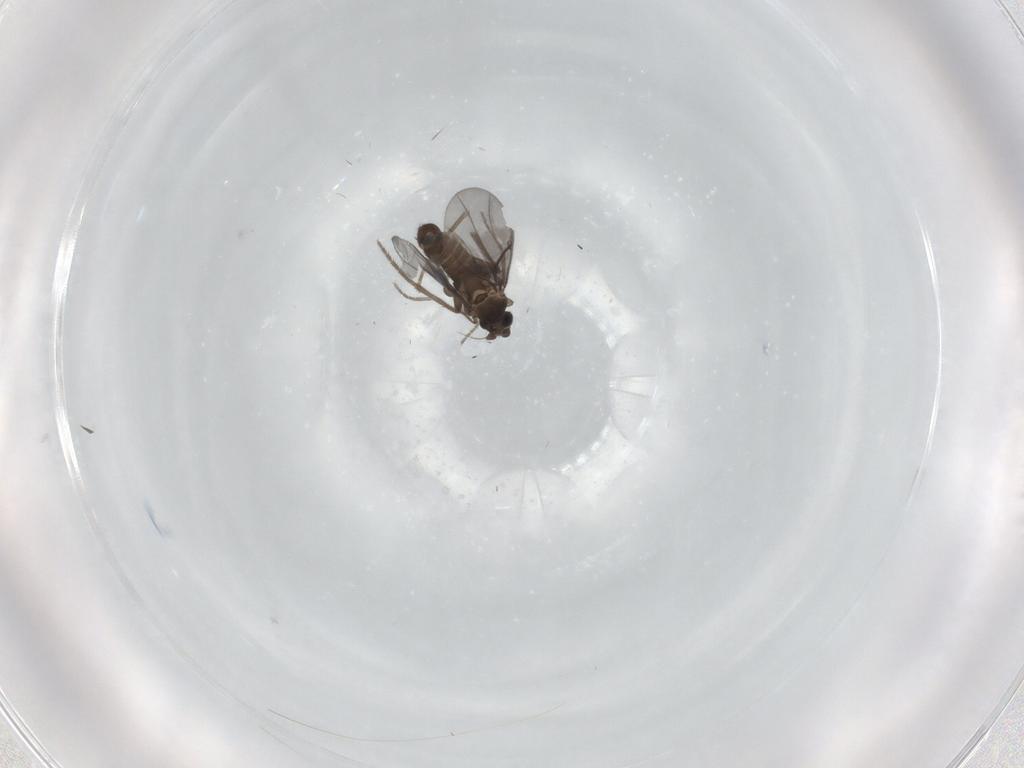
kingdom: Animalia
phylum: Arthropoda
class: Insecta
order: Diptera
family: Phoridae
